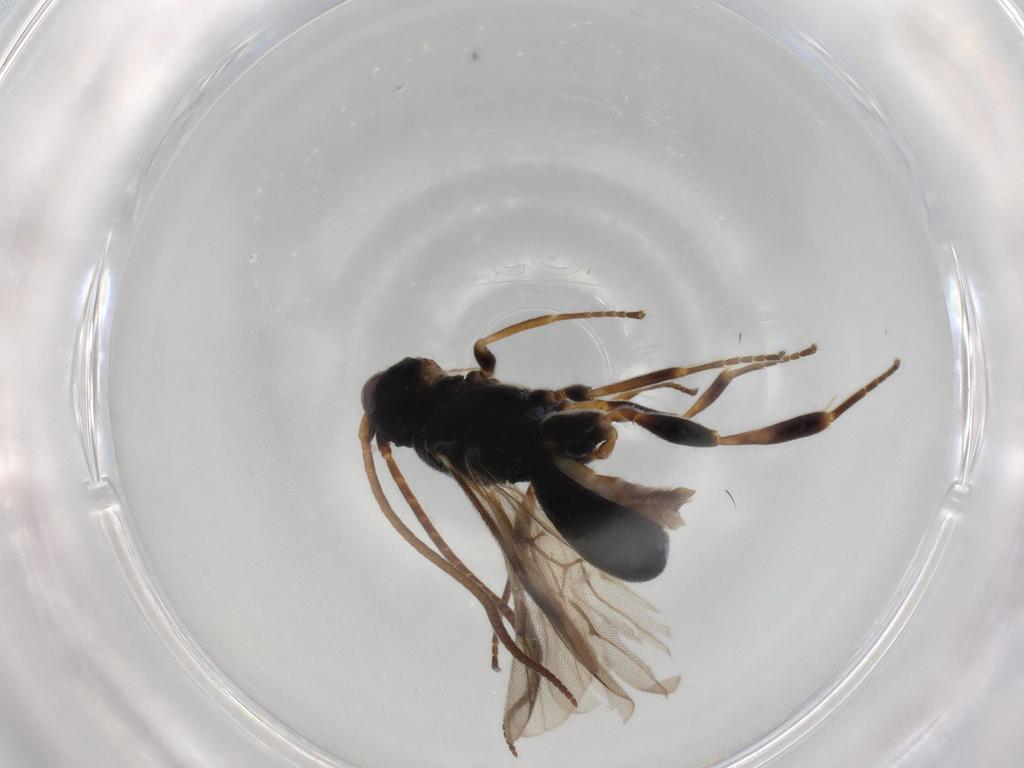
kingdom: Animalia
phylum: Arthropoda
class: Insecta
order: Hymenoptera
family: Braconidae
